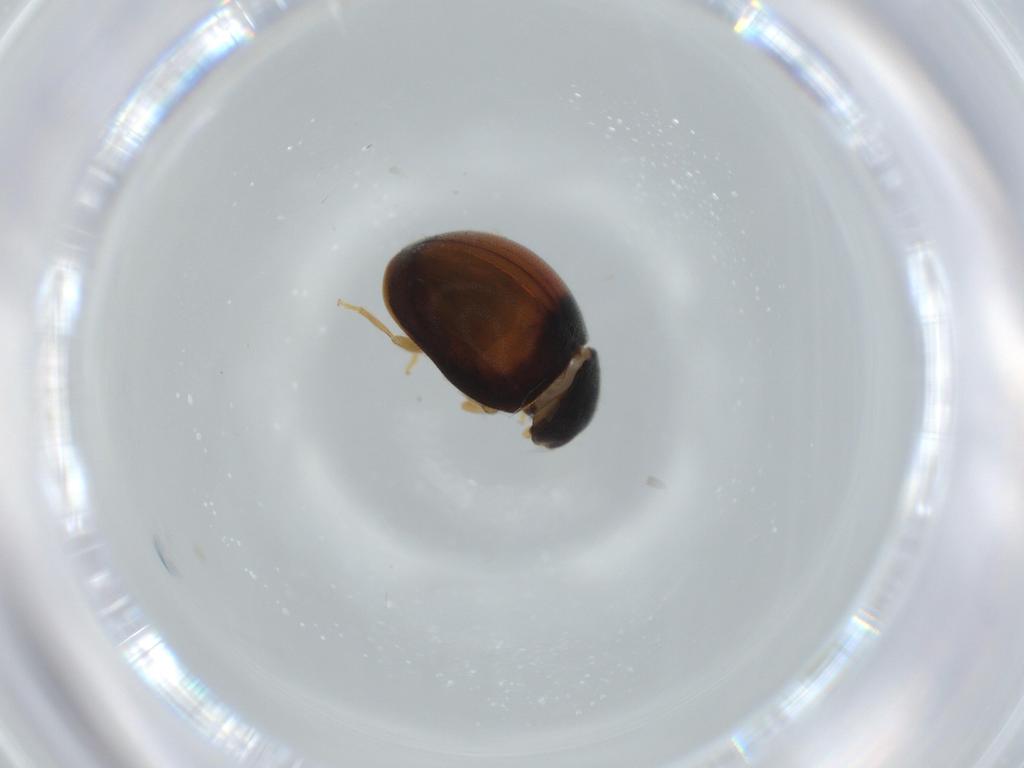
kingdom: Animalia
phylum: Arthropoda
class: Insecta
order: Coleoptera
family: Coccinellidae
